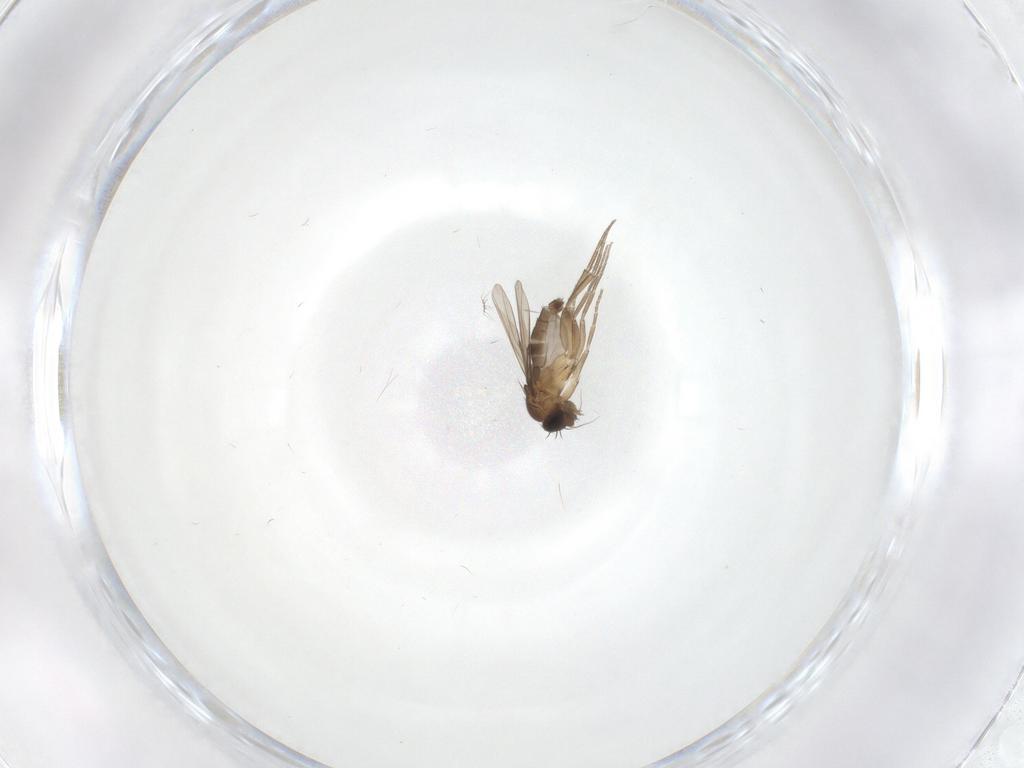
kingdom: Animalia
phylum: Arthropoda
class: Insecta
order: Diptera
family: Phoridae
